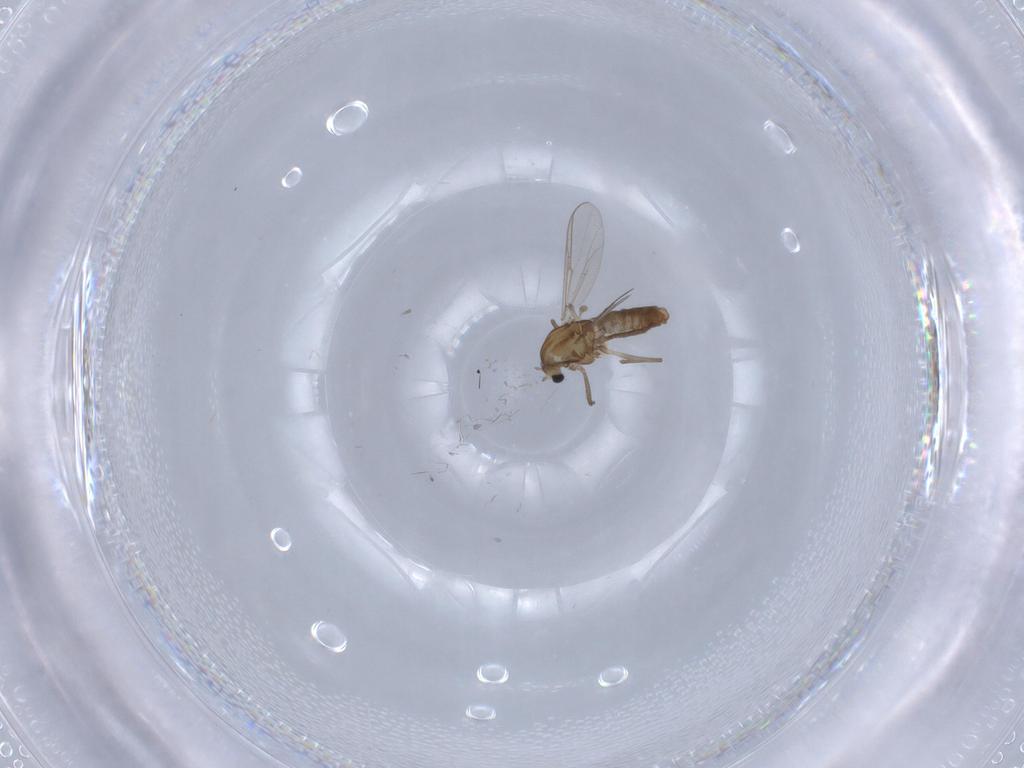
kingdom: Animalia
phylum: Arthropoda
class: Insecta
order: Diptera
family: Chironomidae
